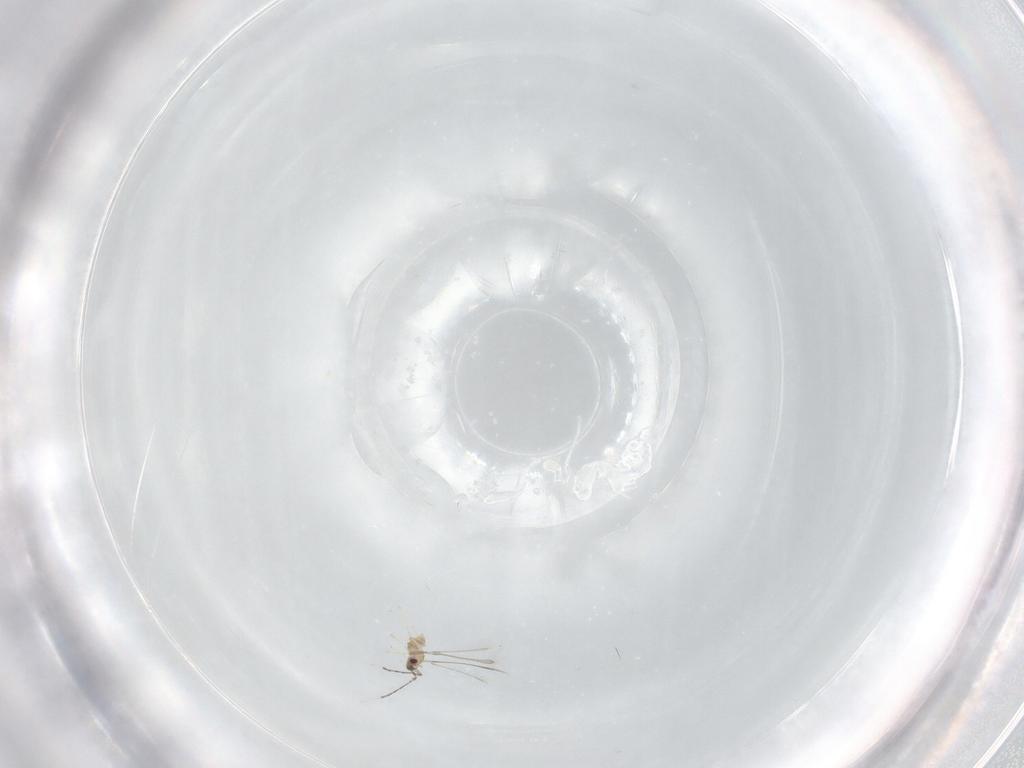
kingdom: Animalia
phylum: Arthropoda
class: Insecta
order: Hymenoptera
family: Mymaridae
